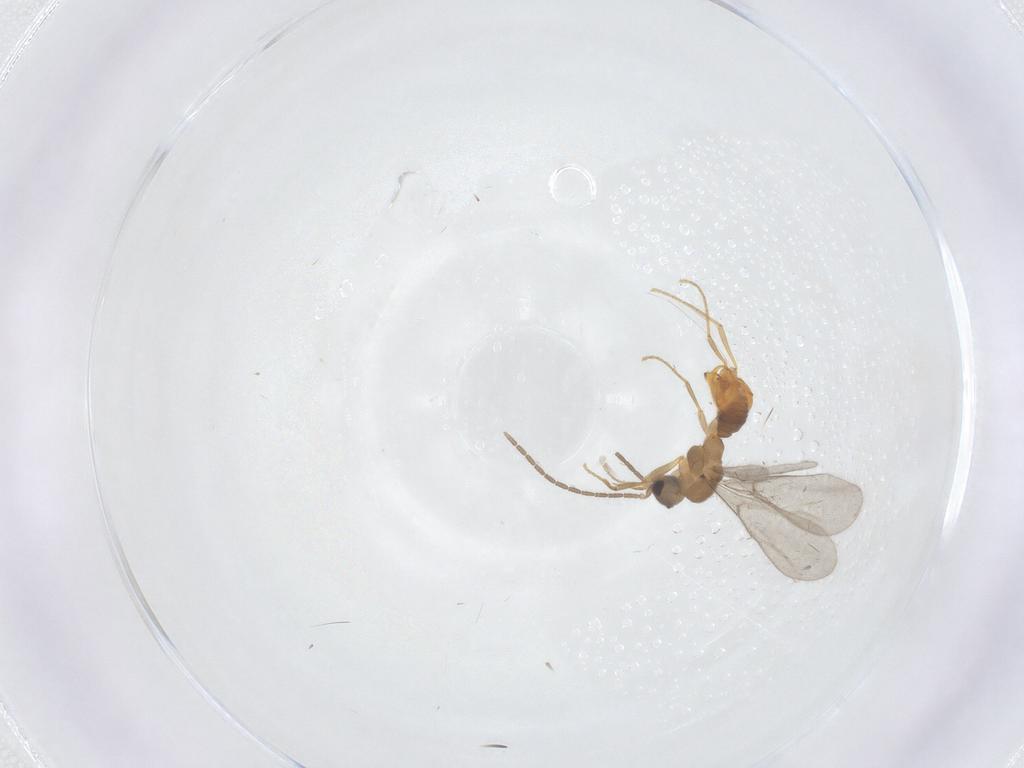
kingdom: Animalia
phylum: Arthropoda
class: Insecta
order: Hymenoptera
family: Formicidae
